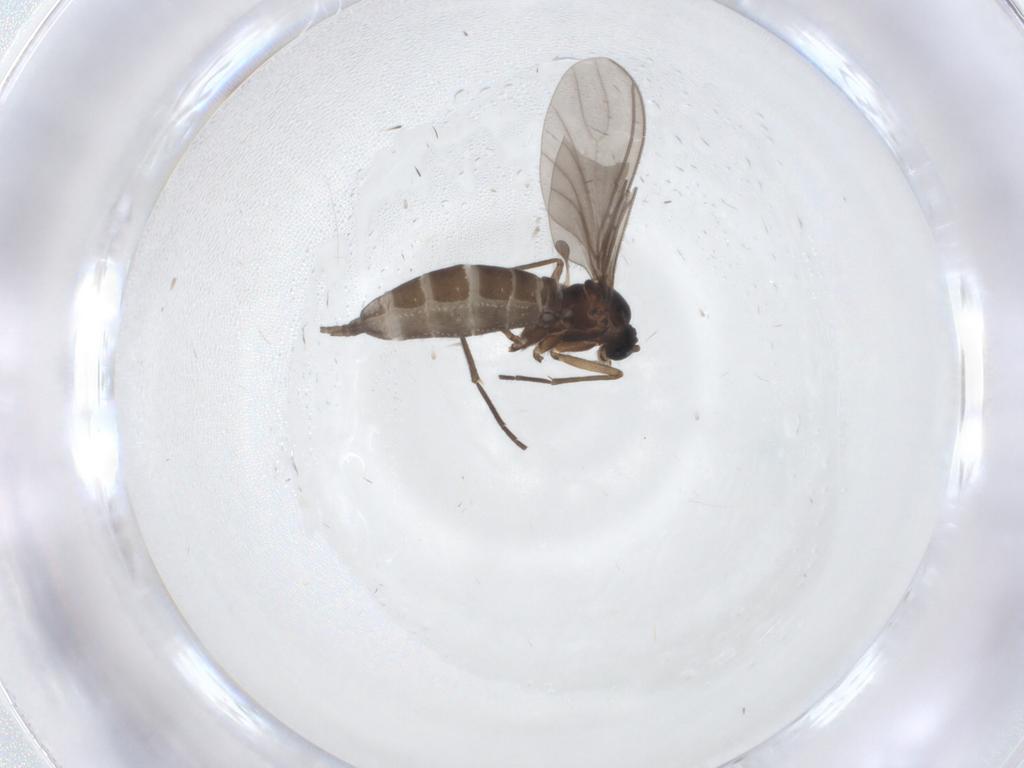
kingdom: Animalia
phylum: Arthropoda
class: Insecta
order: Diptera
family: Sciaridae
